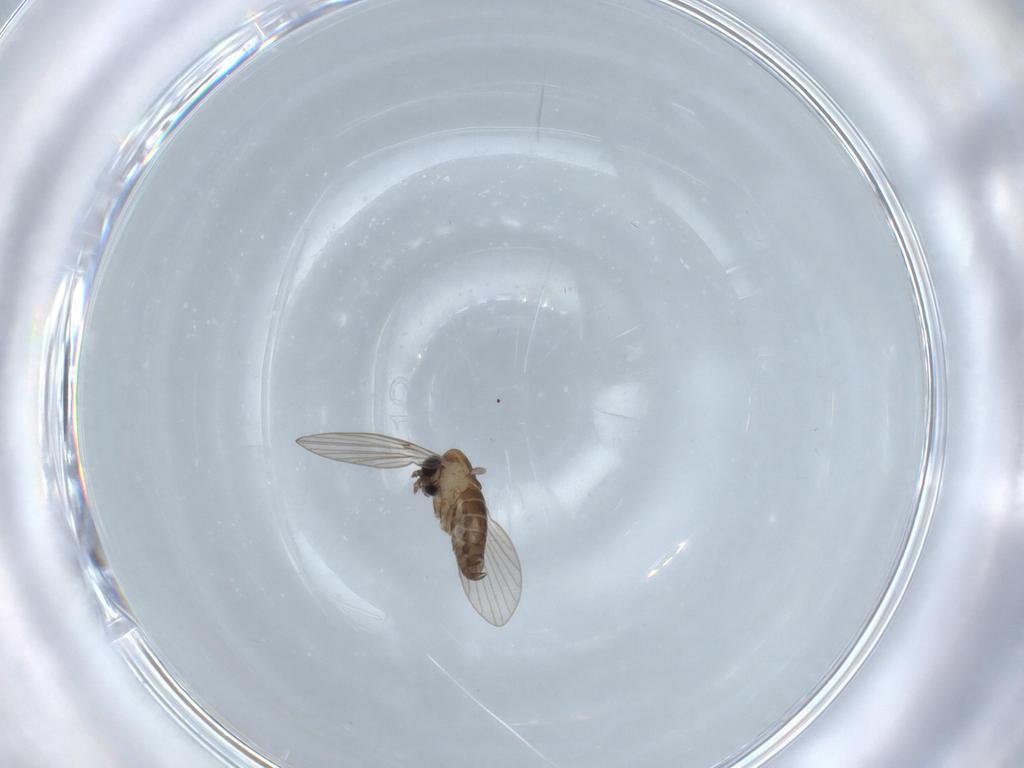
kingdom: Animalia
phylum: Arthropoda
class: Insecta
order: Diptera
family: Psychodidae
